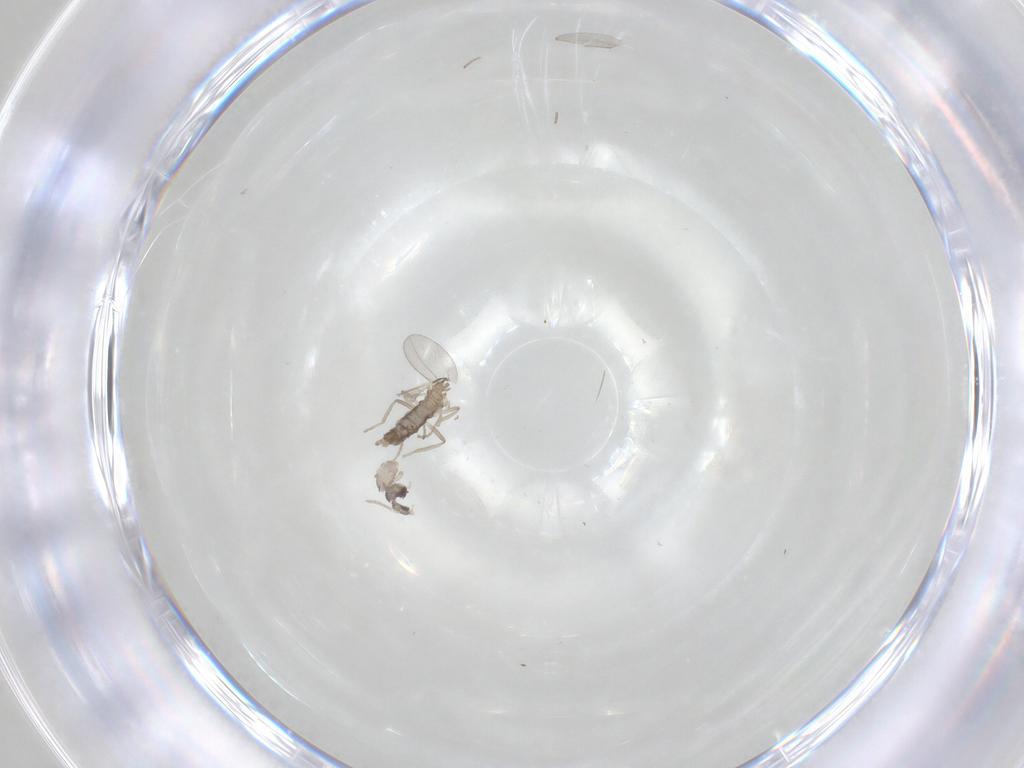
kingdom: Animalia
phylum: Arthropoda
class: Insecta
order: Diptera
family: Cecidomyiidae
